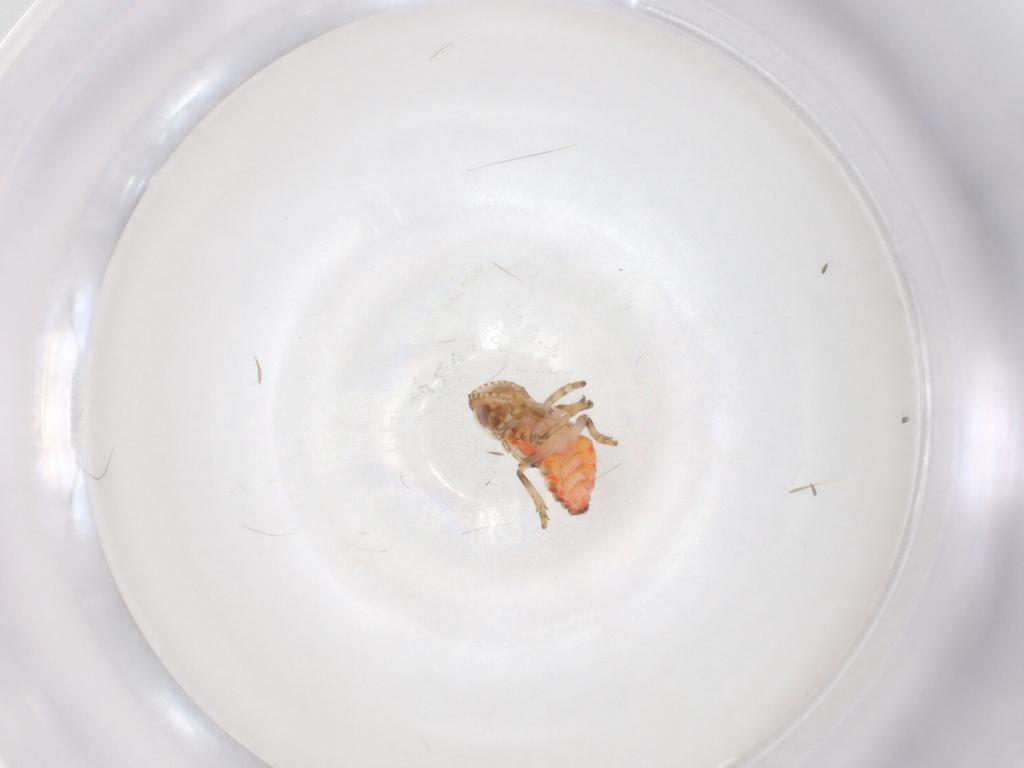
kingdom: Animalia
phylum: Arthropoda
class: Insecta
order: Hemiptera
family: Tropiduchidae
